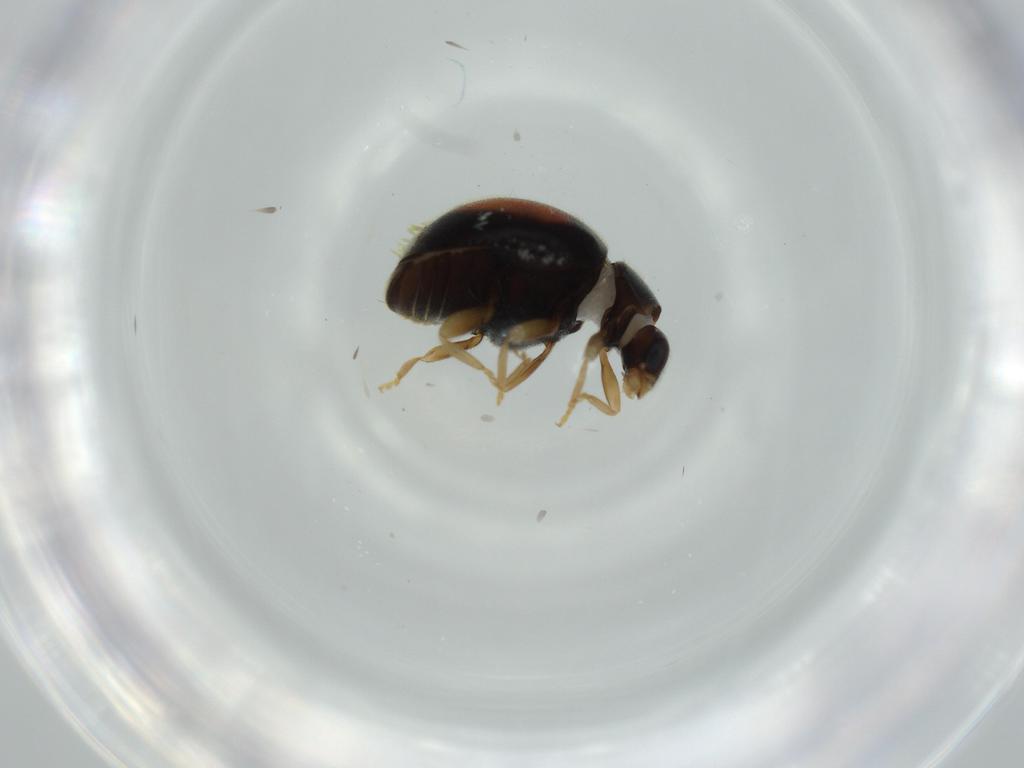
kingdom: Animalia
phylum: Arthropoda
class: Insecta
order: Coleoptera
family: Coccinellidae
